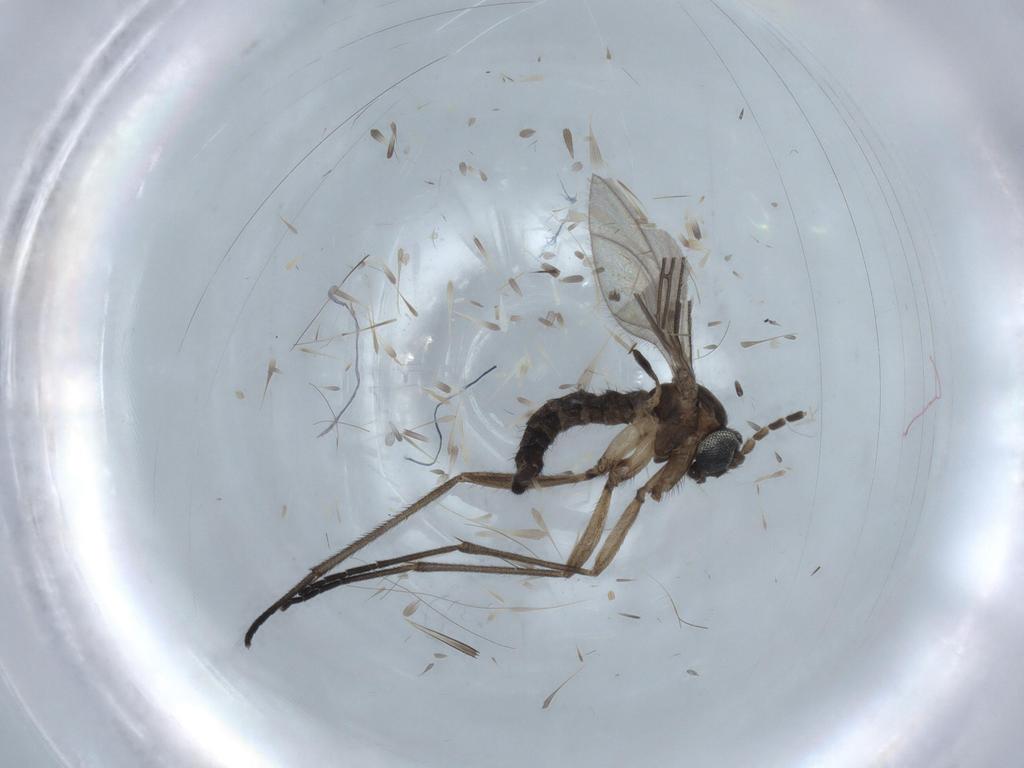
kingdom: Animalia
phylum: Arthropoda
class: Insecta
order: Diptera
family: Sciaridae
